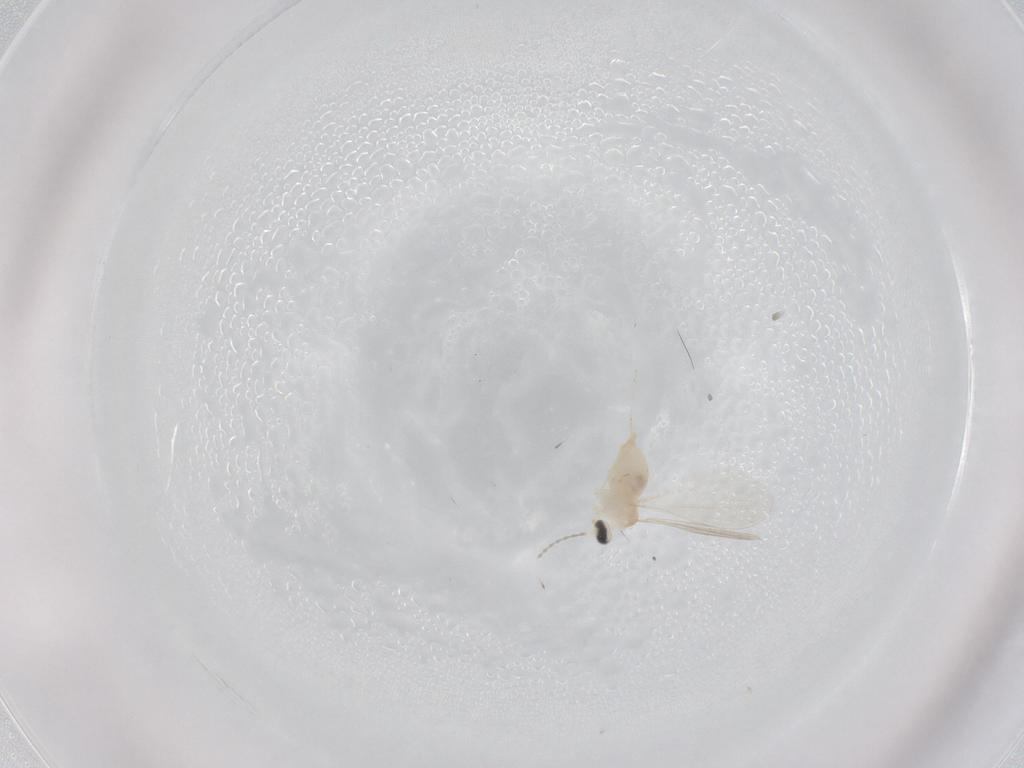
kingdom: Animalia
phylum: Arthropoda
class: Insecta
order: Diptera
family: Cecidomyiidae
